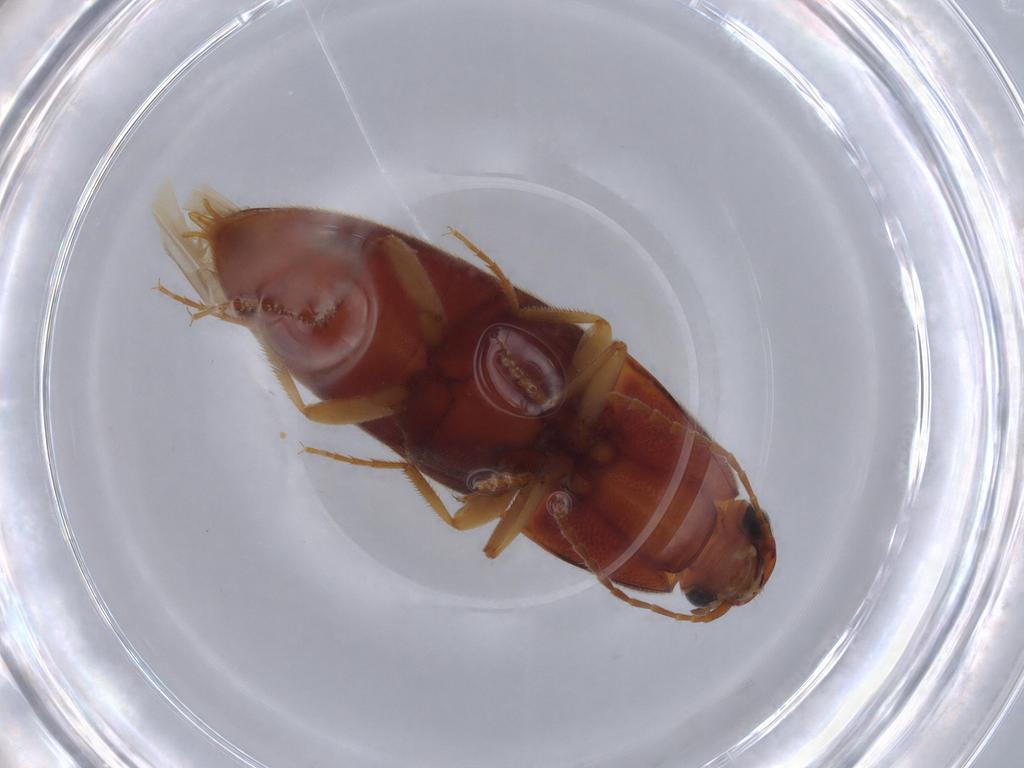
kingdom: Animalia
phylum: Arthropoda
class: Insecta
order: Coleoptera
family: Elateridae
